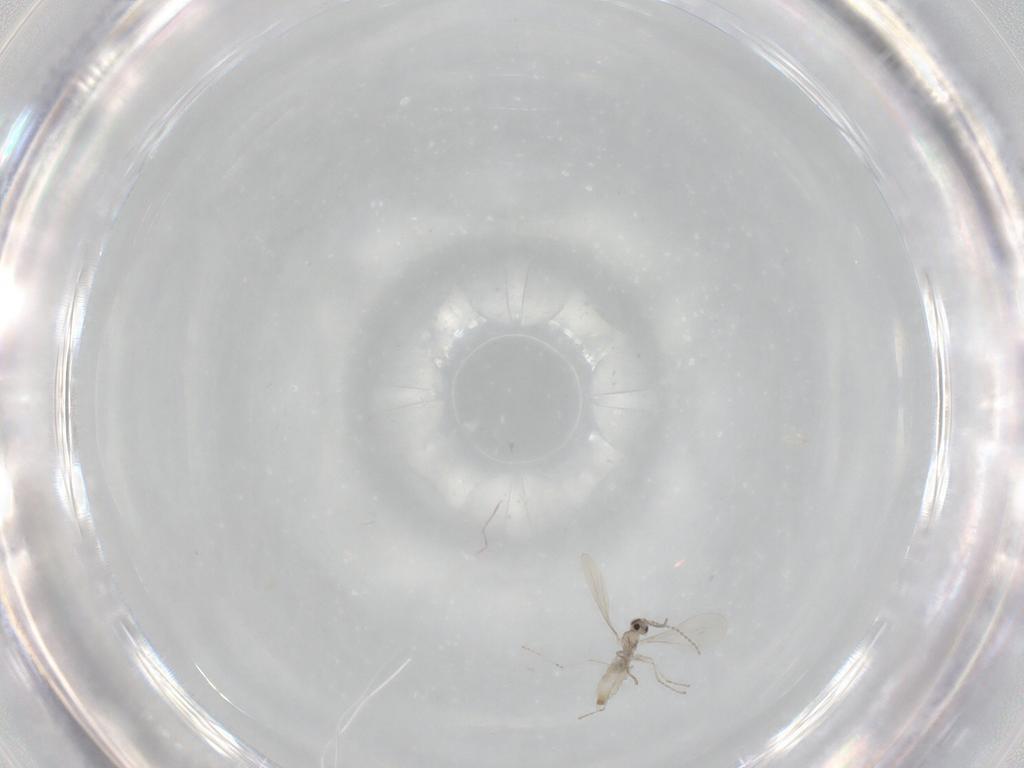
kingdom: Animalia
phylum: Arthropoda
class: Insecta
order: Diptera
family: Cecidomyiidae
